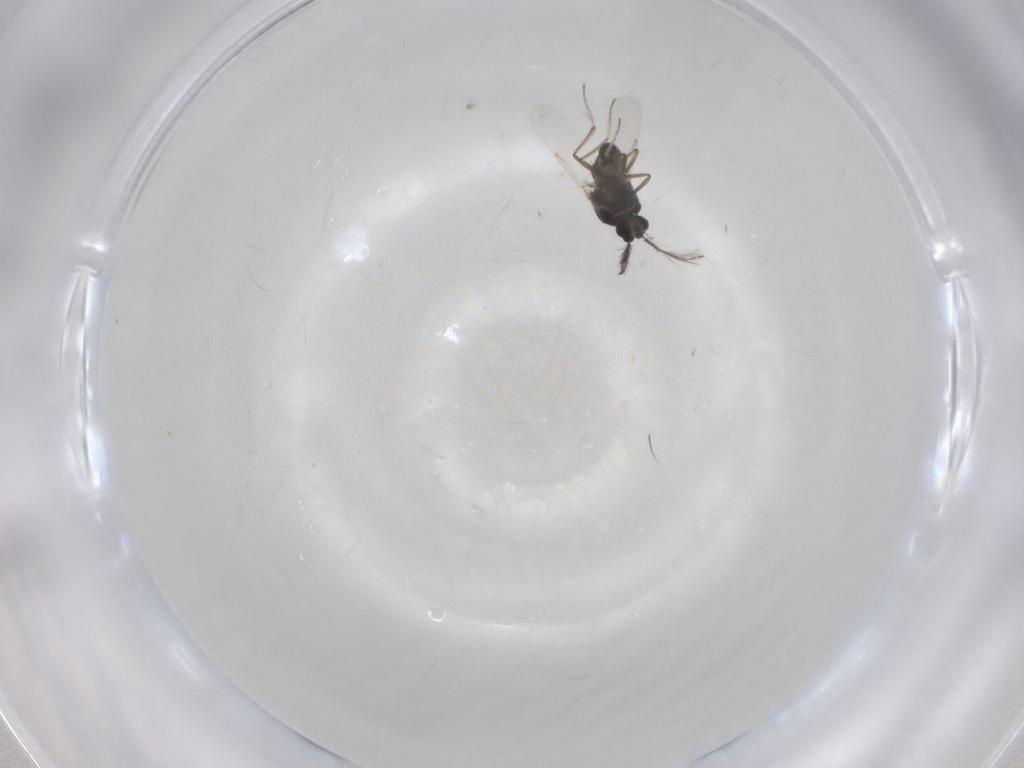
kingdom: Animalia
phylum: Arthropoda
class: Insecta
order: Diptera
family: Ceratopogonidae
